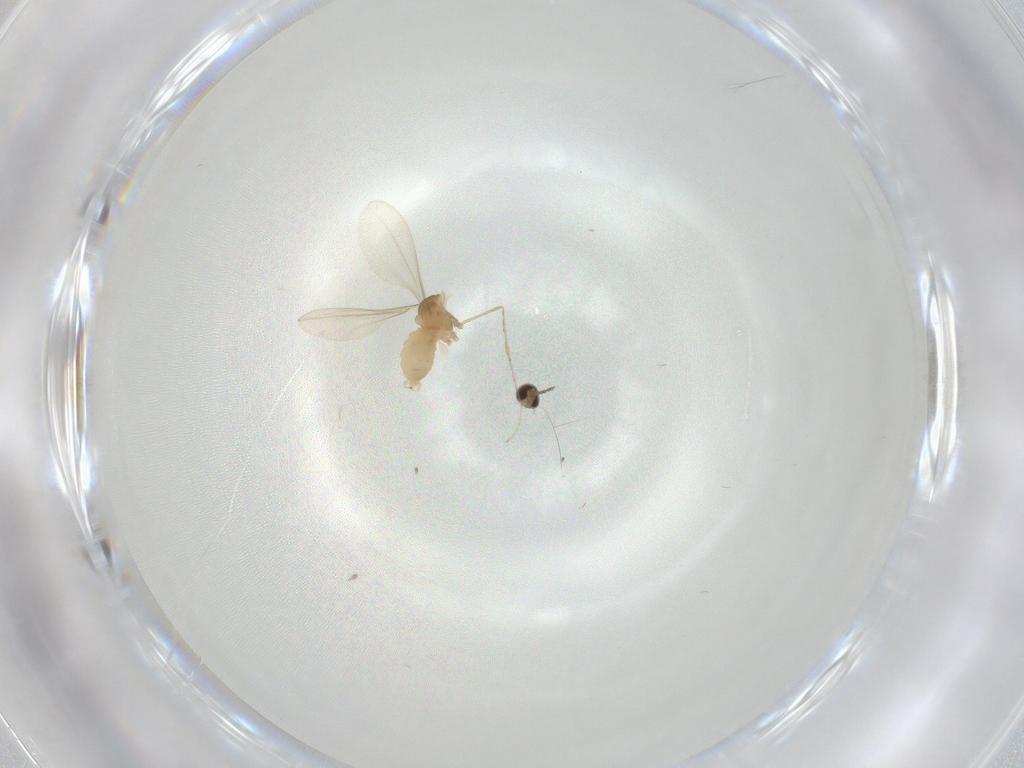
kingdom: Animalia
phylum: Arthropoda
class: Insecta
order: Diptera
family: Cecidomyiidae
